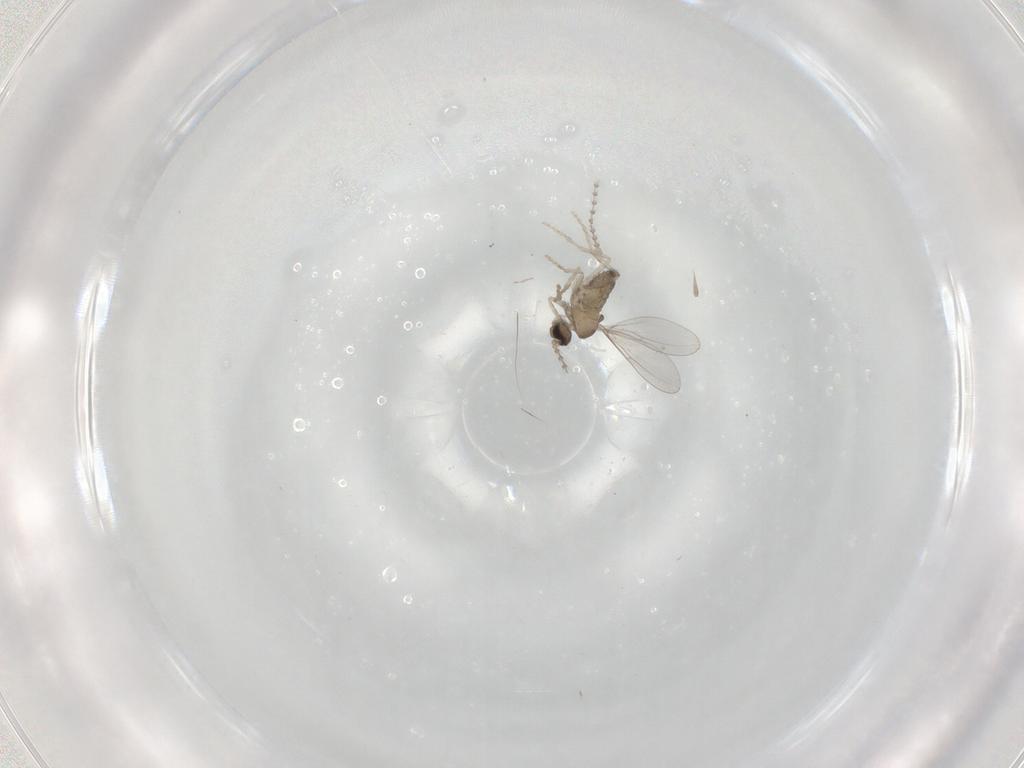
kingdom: Animalia
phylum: Arthropoda
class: Insecta
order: Diptera
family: Cecidomyiidae
